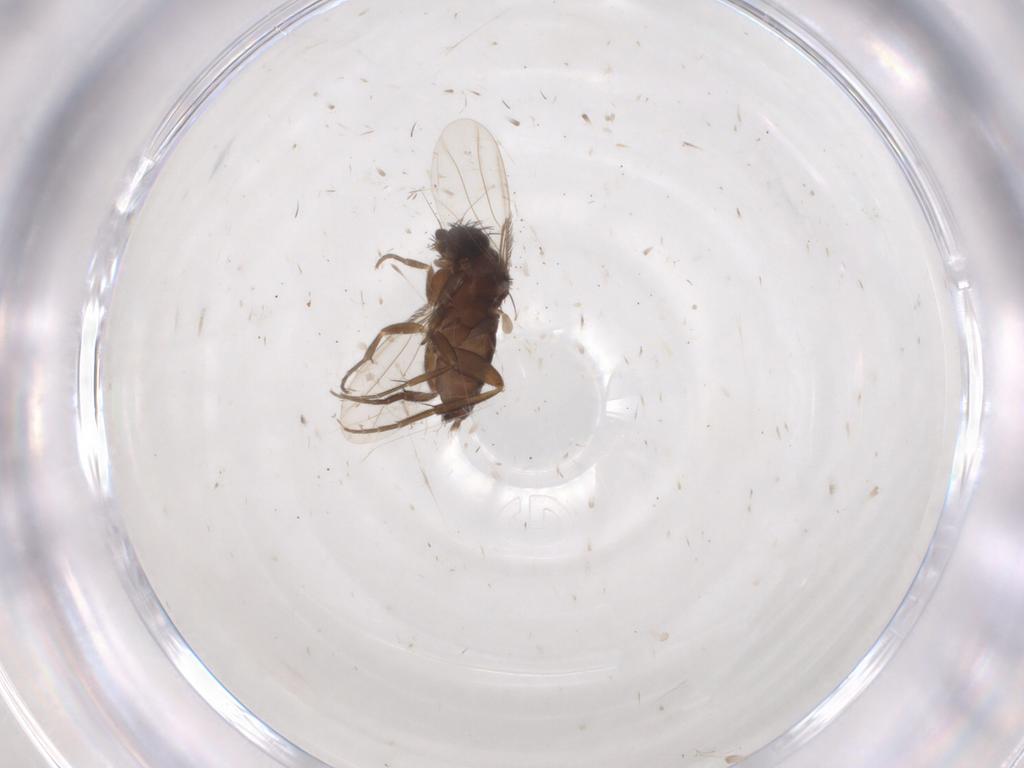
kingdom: Animalia
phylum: Arthropoda
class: Insecta
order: Diptera
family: Phoridae
